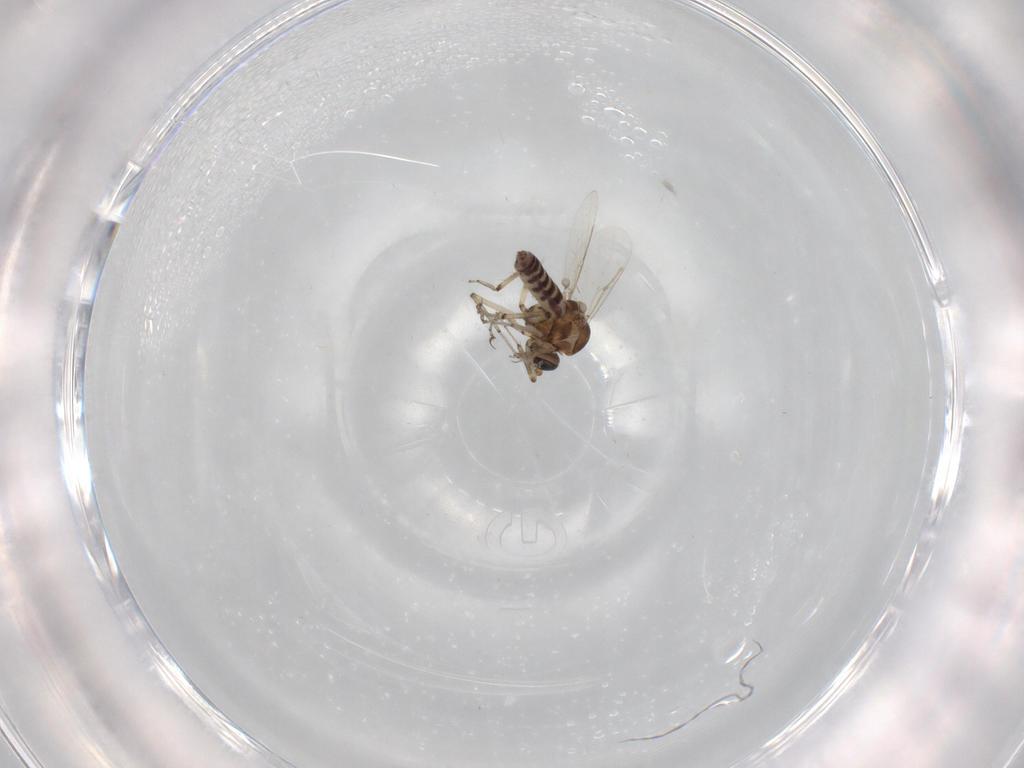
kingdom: Animalia
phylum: Arthropoda
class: Insecta
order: Diptera
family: Ceratopogonidae
